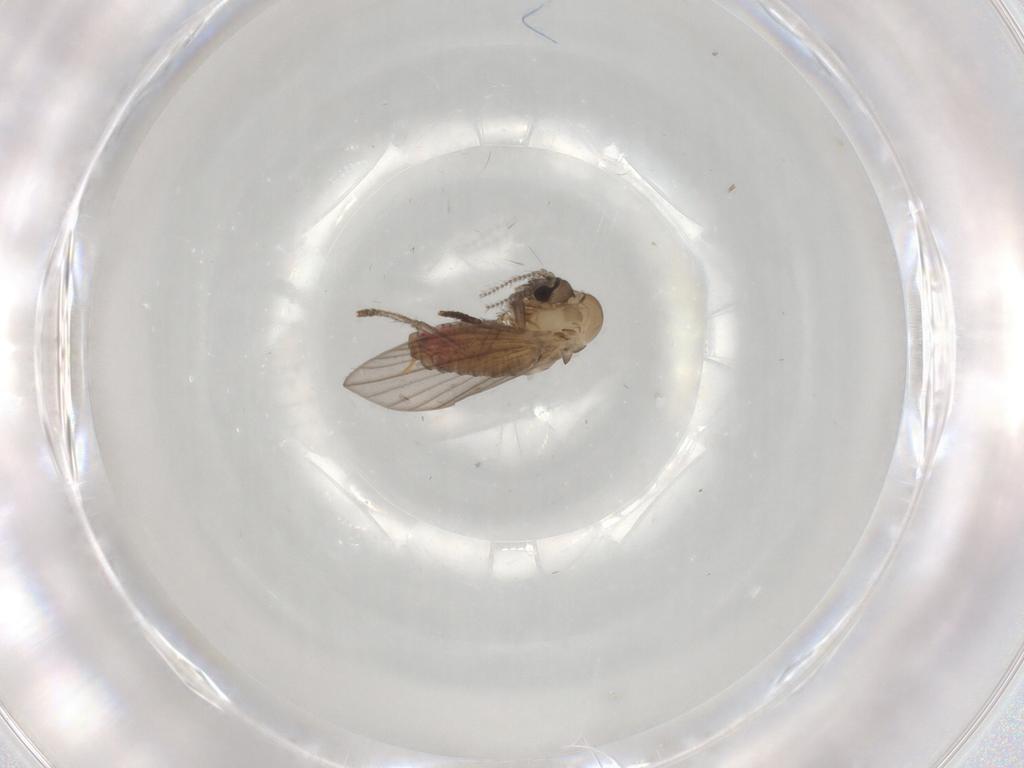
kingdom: Animalia
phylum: Arthropoda
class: Insecta
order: Diptera
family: Psychodidae
